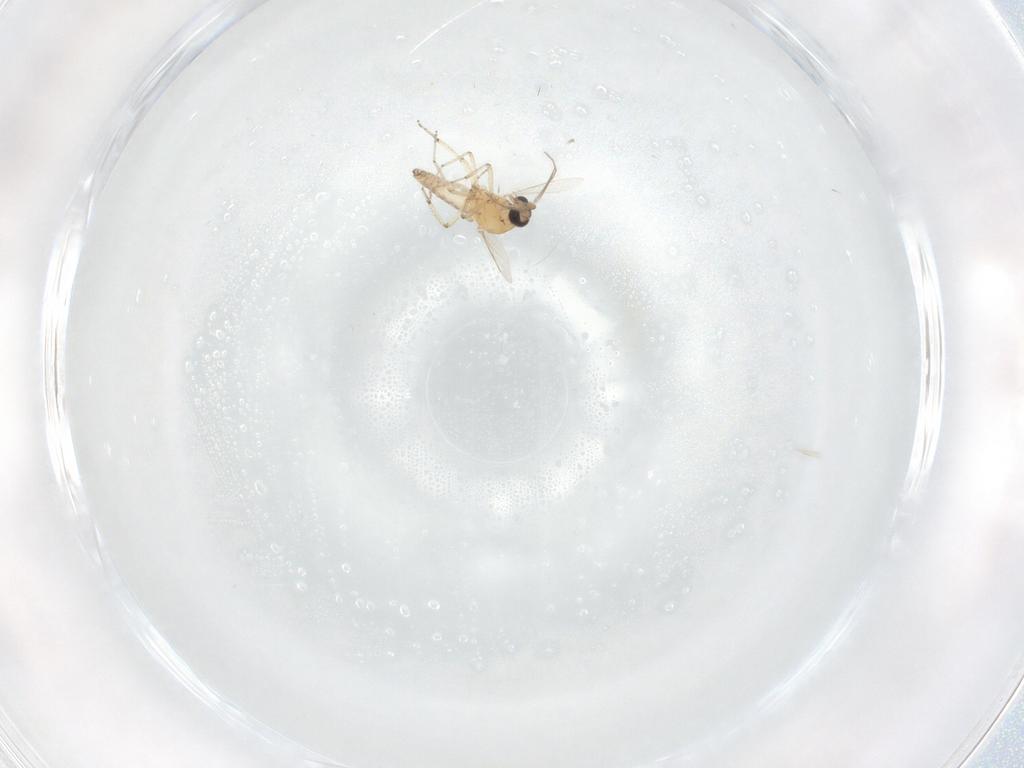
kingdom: Animalia
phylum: Arthropoda
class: Insecta
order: Diptera
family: Ceratopogonidae
